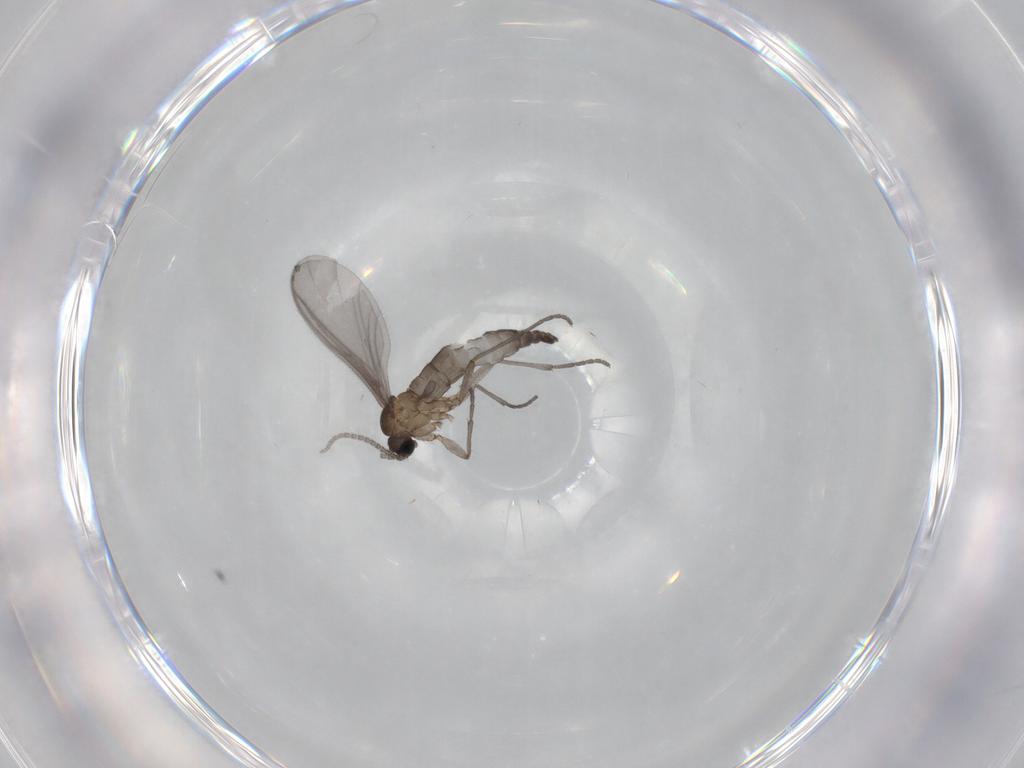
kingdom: Animalia
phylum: Arthropoda
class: Insecta
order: Diptera
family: Sciaridae
